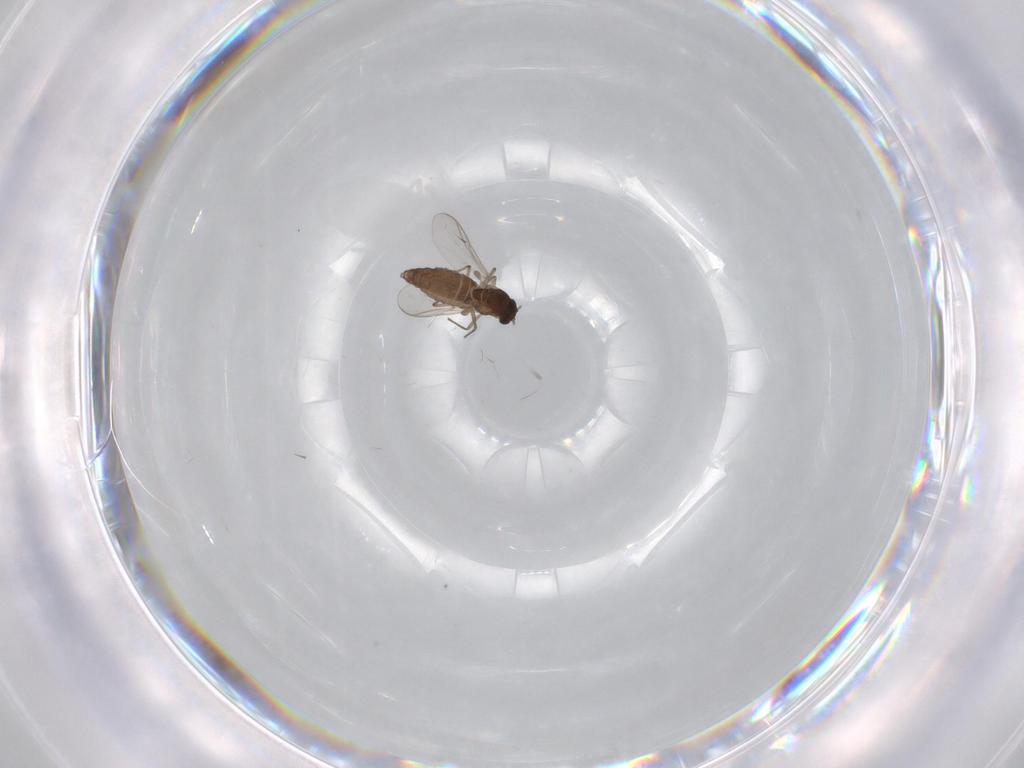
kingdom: Animalia
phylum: Arthropoda
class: Insecta
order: Diptera
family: Chironomidae
